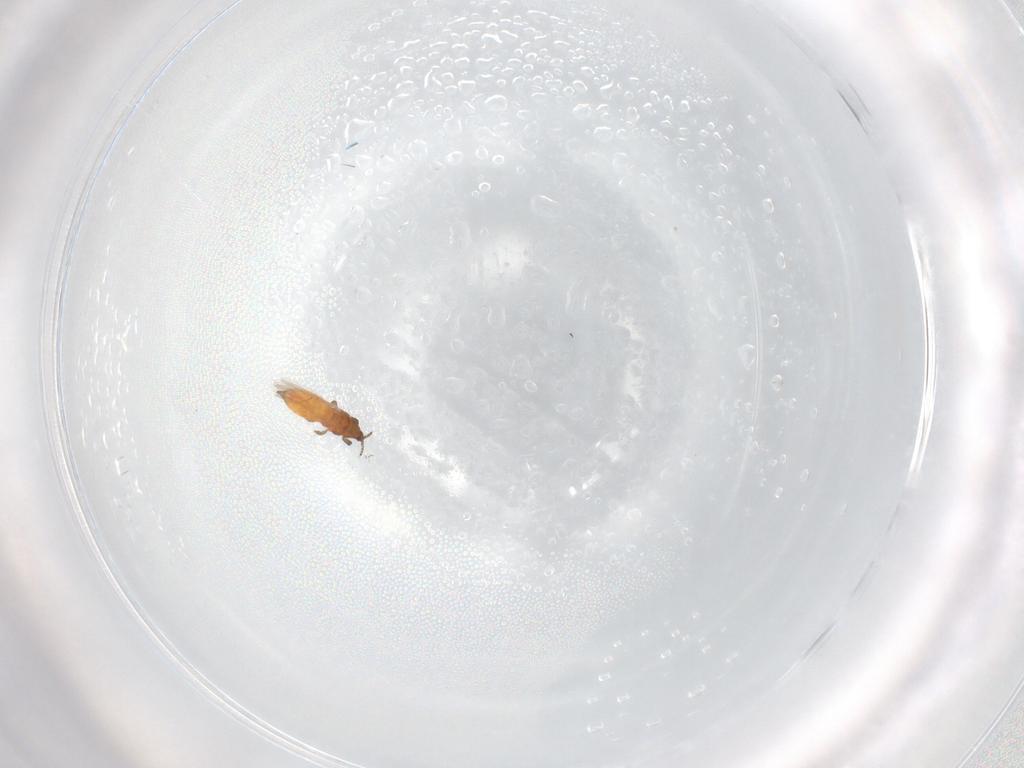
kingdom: Animalia
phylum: Arthropoda
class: Insecta
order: Thysanoptera
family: Thripidae
